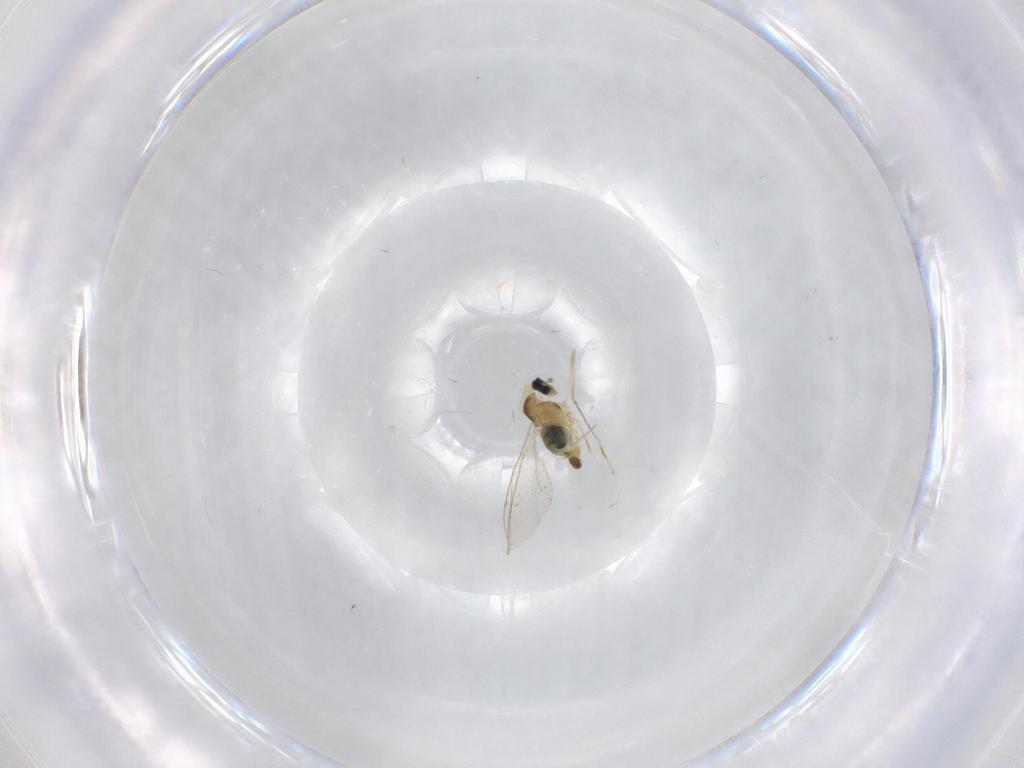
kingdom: Animalia
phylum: Arthropoda
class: Insecta
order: Diptera
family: Cecidomyiidae
